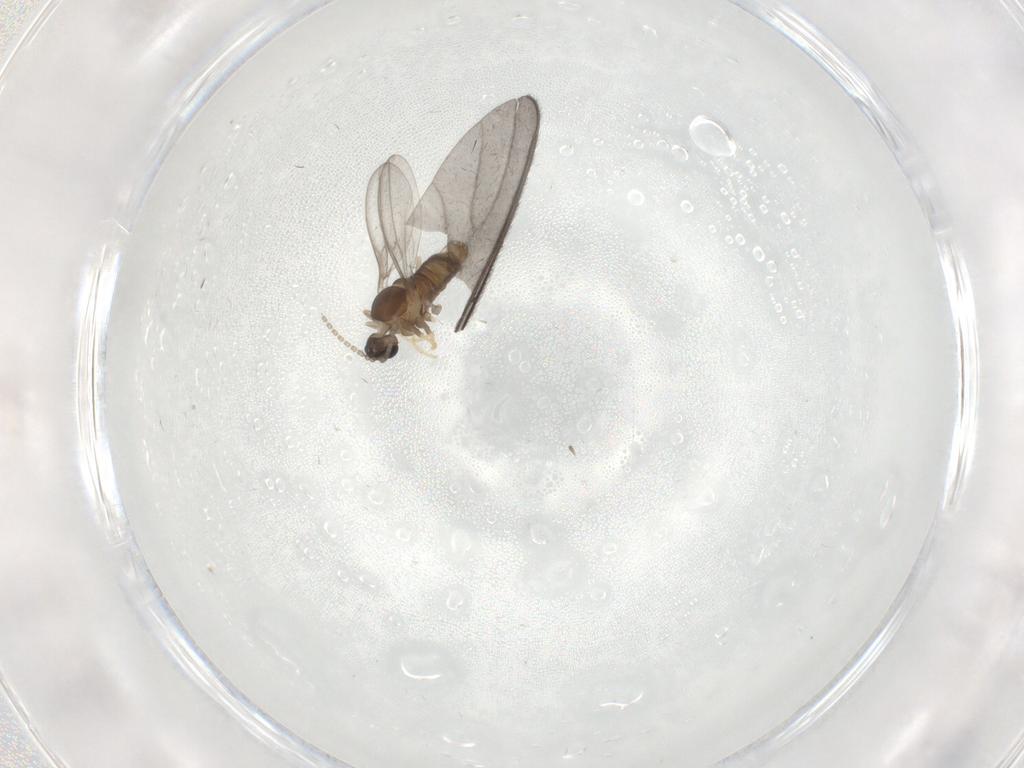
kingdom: Animalia
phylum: Arthropoda
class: Insecta
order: Diptera
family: Cecidomyiidae
